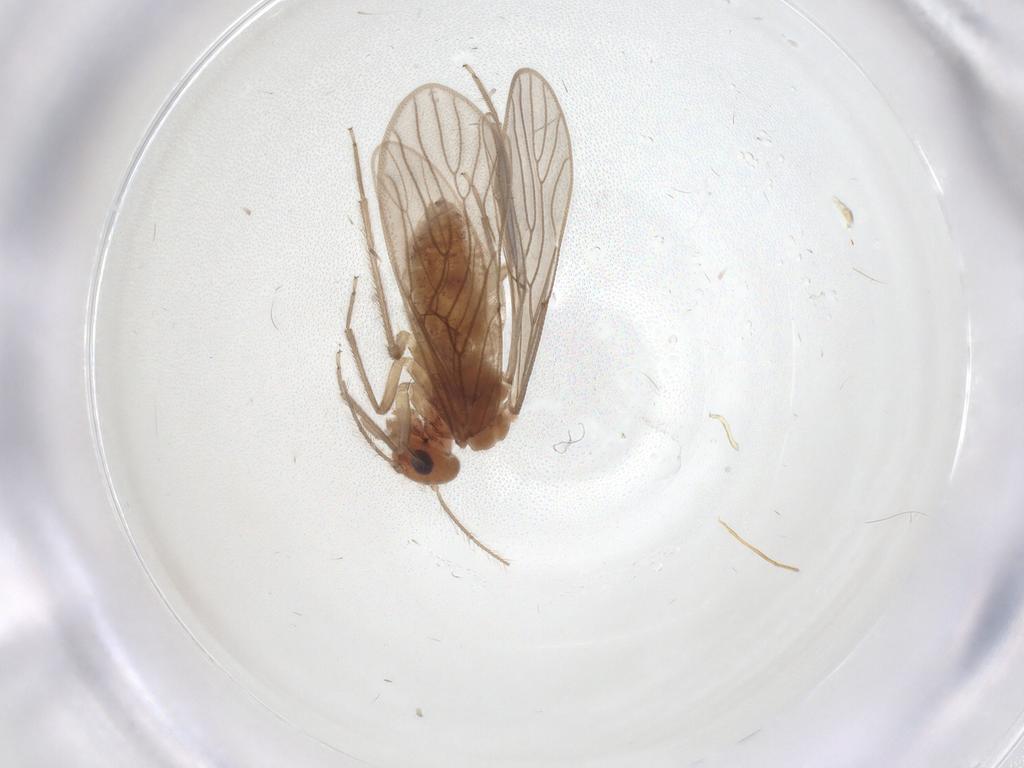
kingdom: Animalia
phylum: Arthropoda
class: Insecta
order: Psocodea
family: Epipsocidae
